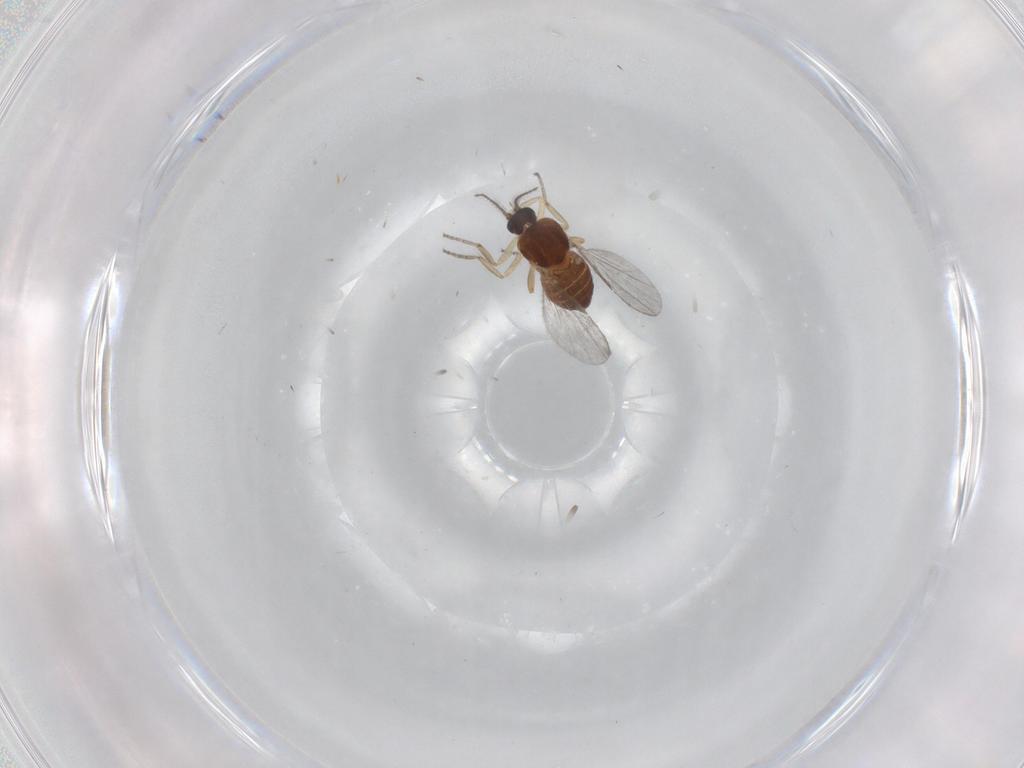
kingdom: Animalia
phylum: Arthropoda
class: Insecta
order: Diptera
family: Ceratopogonidae
